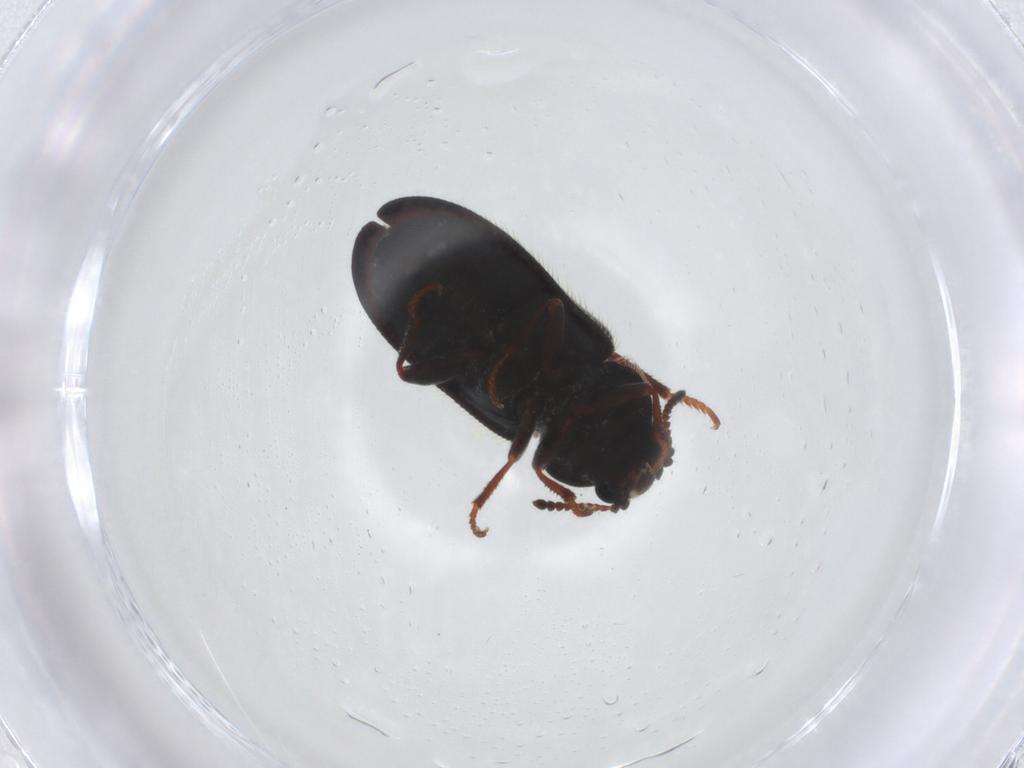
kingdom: Animalia
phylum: Arthropoda
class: Insecta
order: Coleoptera
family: Melyridae
